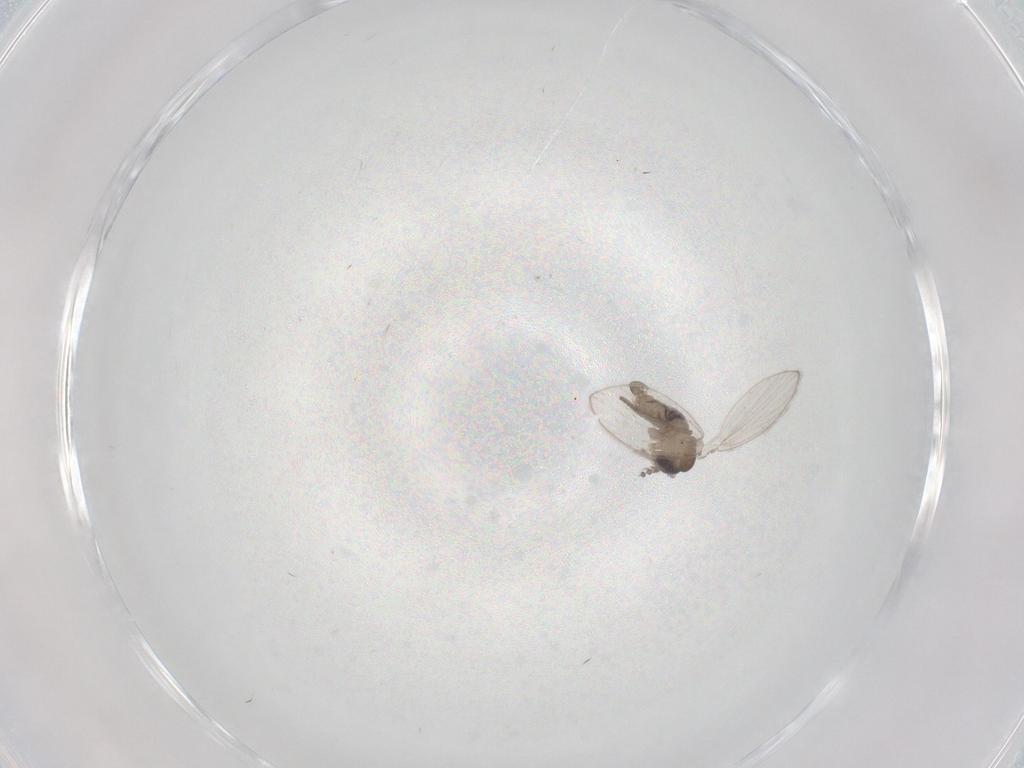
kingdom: Animalia
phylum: Arthropoda
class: Insecta
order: Diptera
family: Psychodidae
